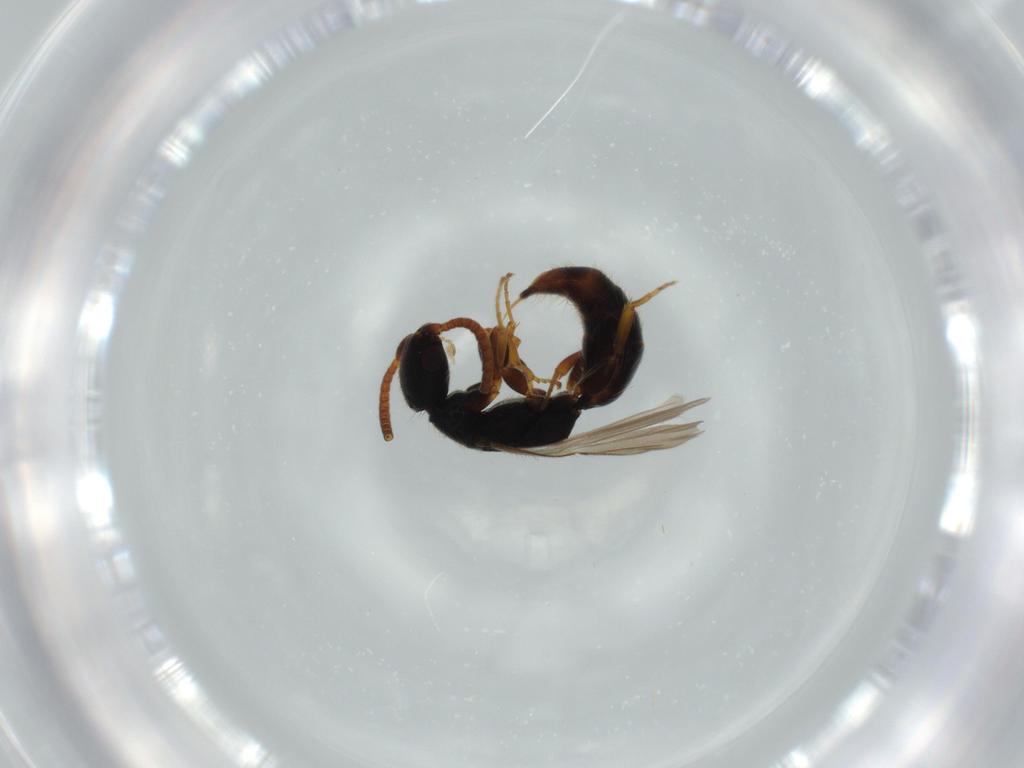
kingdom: Animalia
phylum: Arthropoda
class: Insecta
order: Hymenoptera
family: Bethylidae
